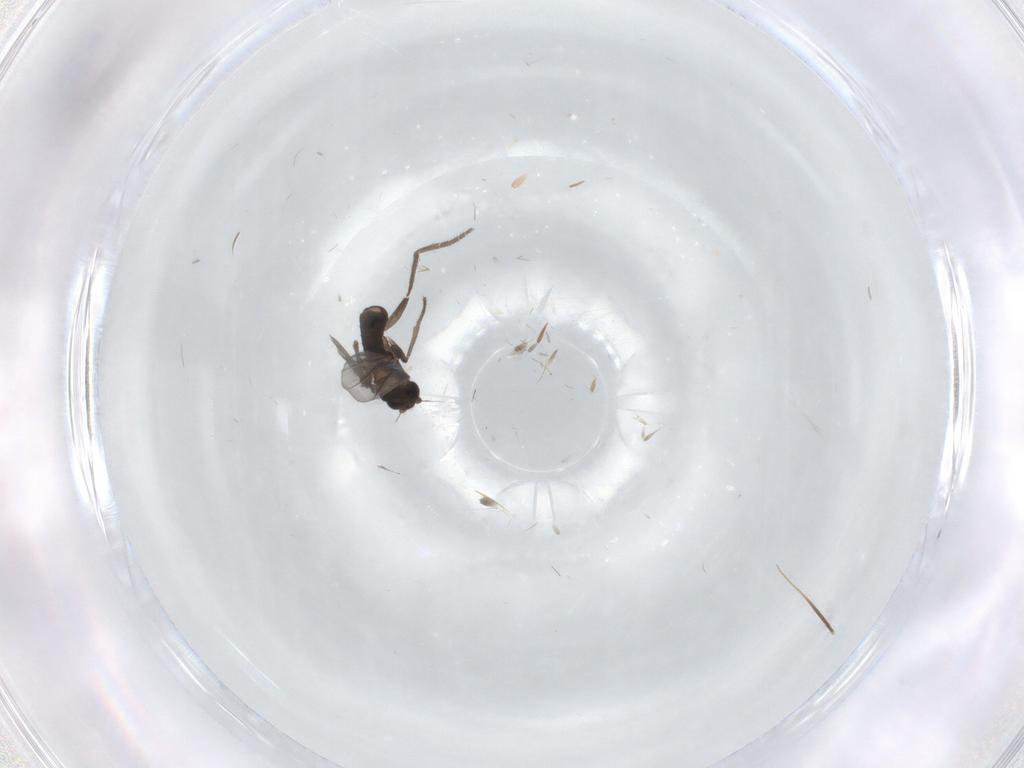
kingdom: Animalia
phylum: Arthropoda
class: Insecta
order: Diptera
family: Phoridae
